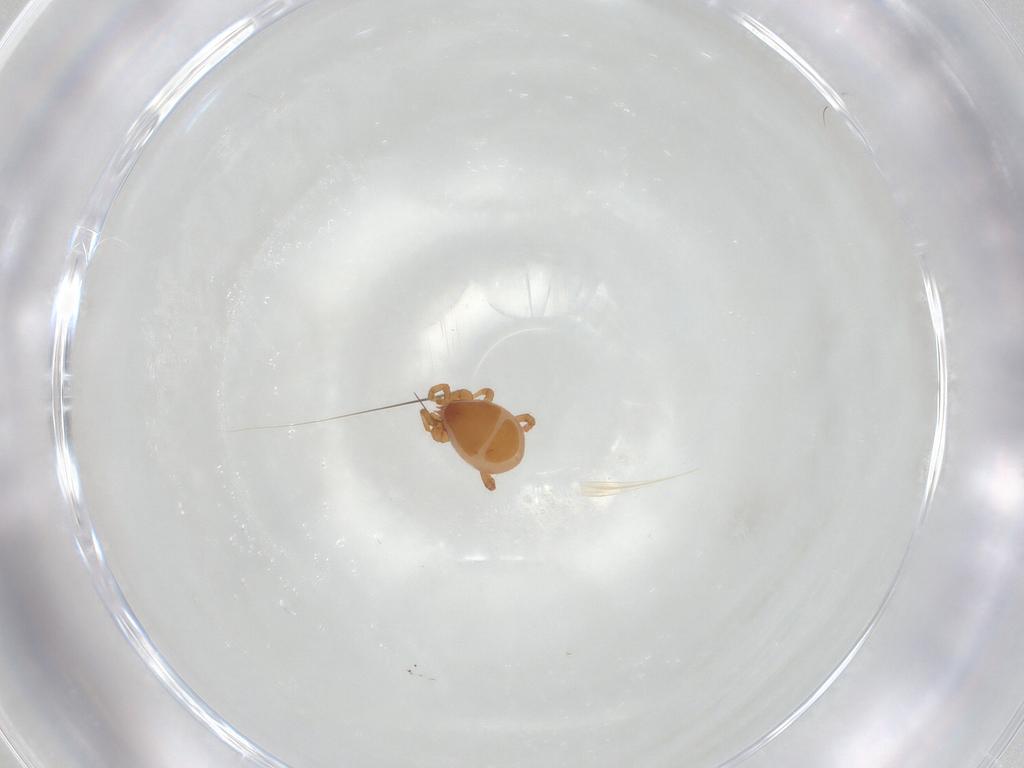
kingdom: Animalia
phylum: Arthropoda
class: Arachnida
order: Mesostigmata
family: Parasitidae
